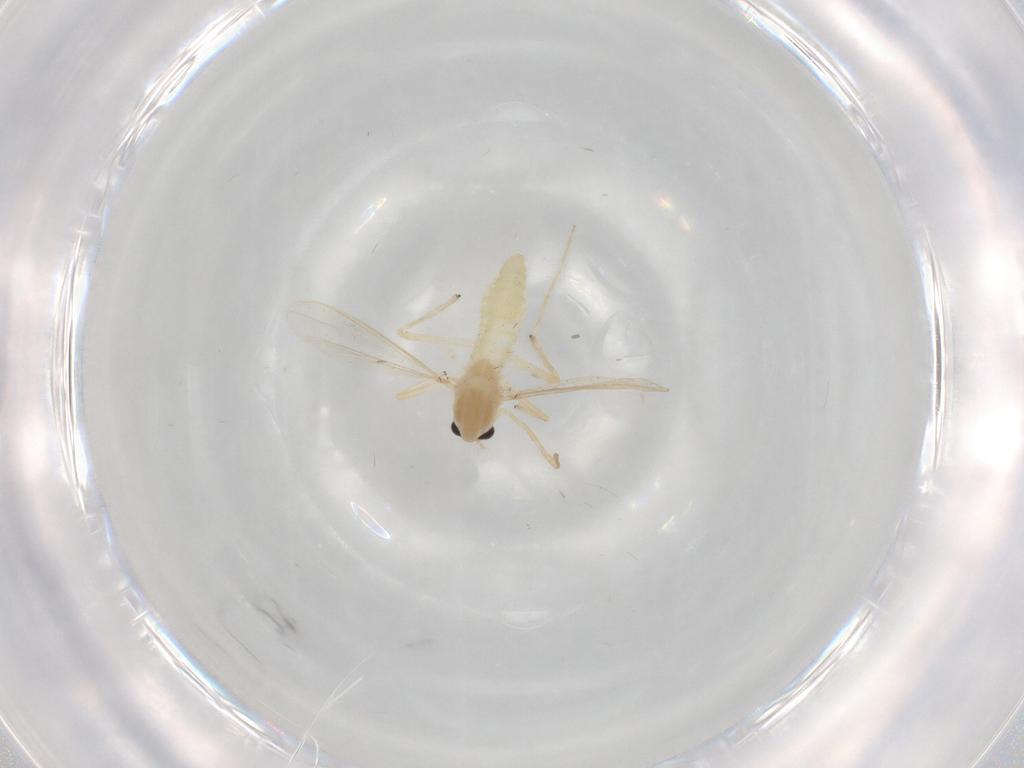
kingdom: Animalia
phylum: Arthropoda
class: Insecta
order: Diptera
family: Chironomidae
